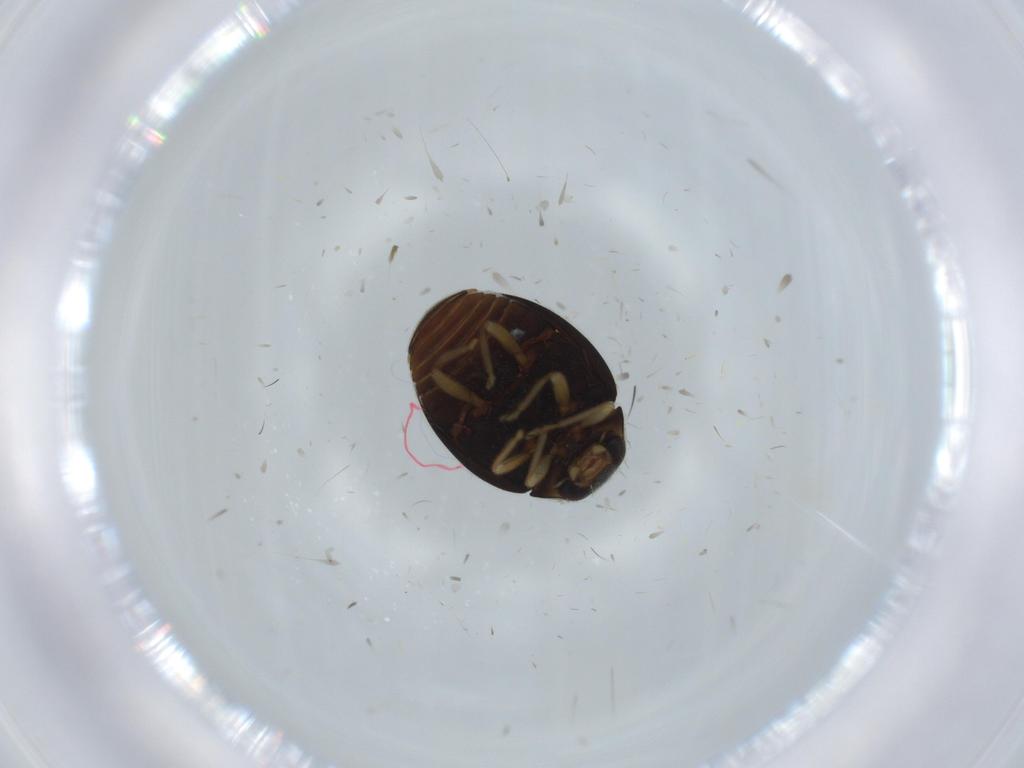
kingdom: Animalia
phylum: Arthropoda
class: Insecta
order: Coleoptera
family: Coccinellidae
